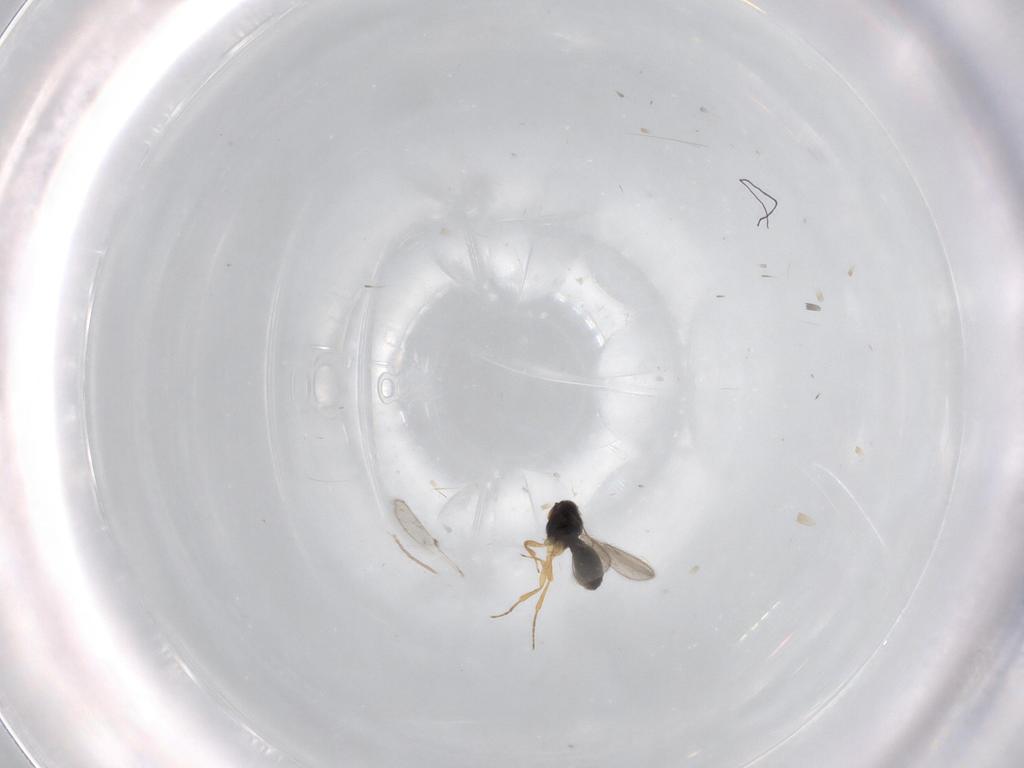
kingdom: Animalia
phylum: Arthropoda
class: Insecta
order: Hymenoptera
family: Scelionidae
